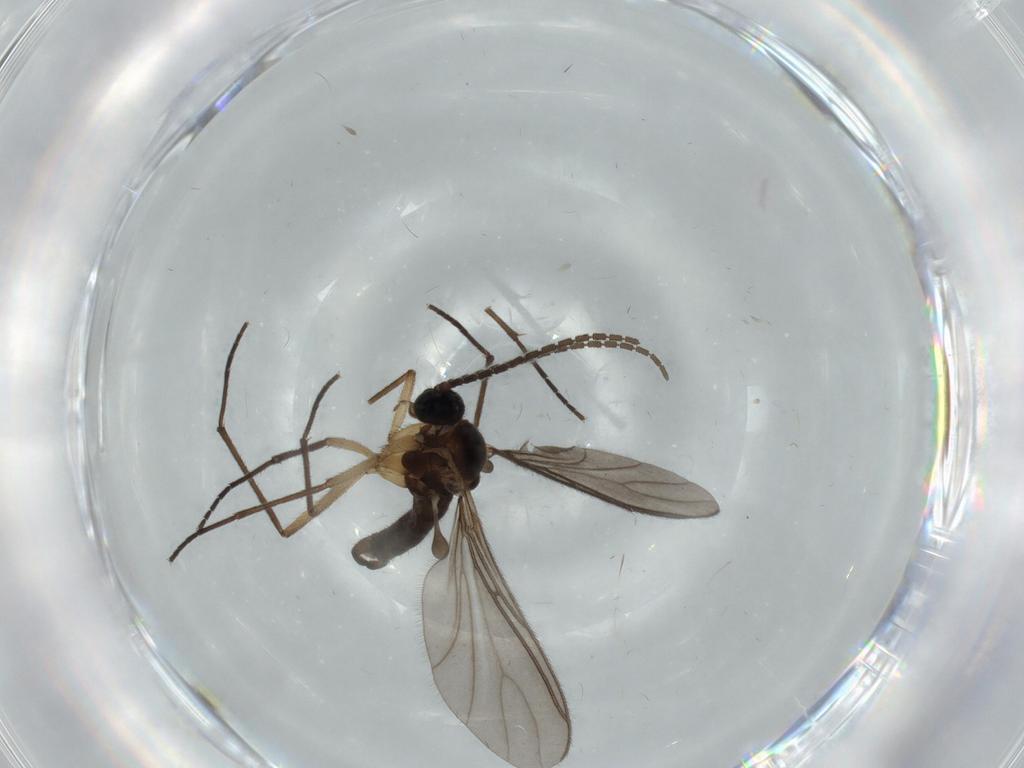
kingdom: Animalia
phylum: Arthropoda
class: Insecta
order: Diptera
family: Sciaridae
